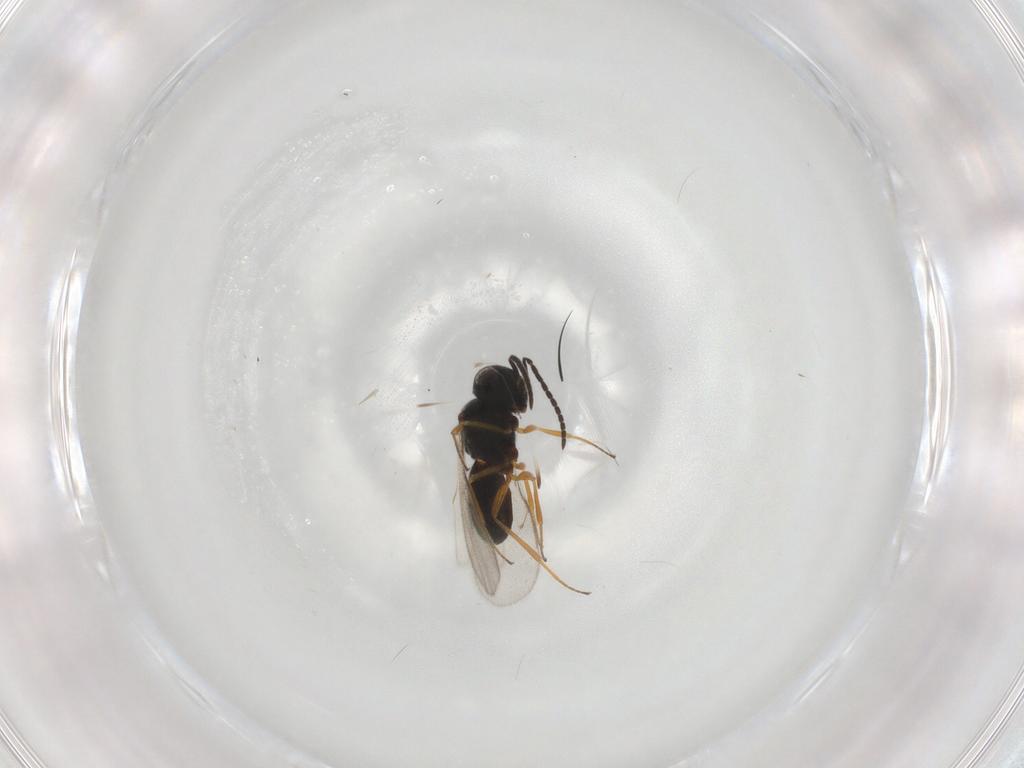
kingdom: Animalia
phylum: Arthropoda
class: Insecta
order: Hymenoptera
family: Scelionidae
